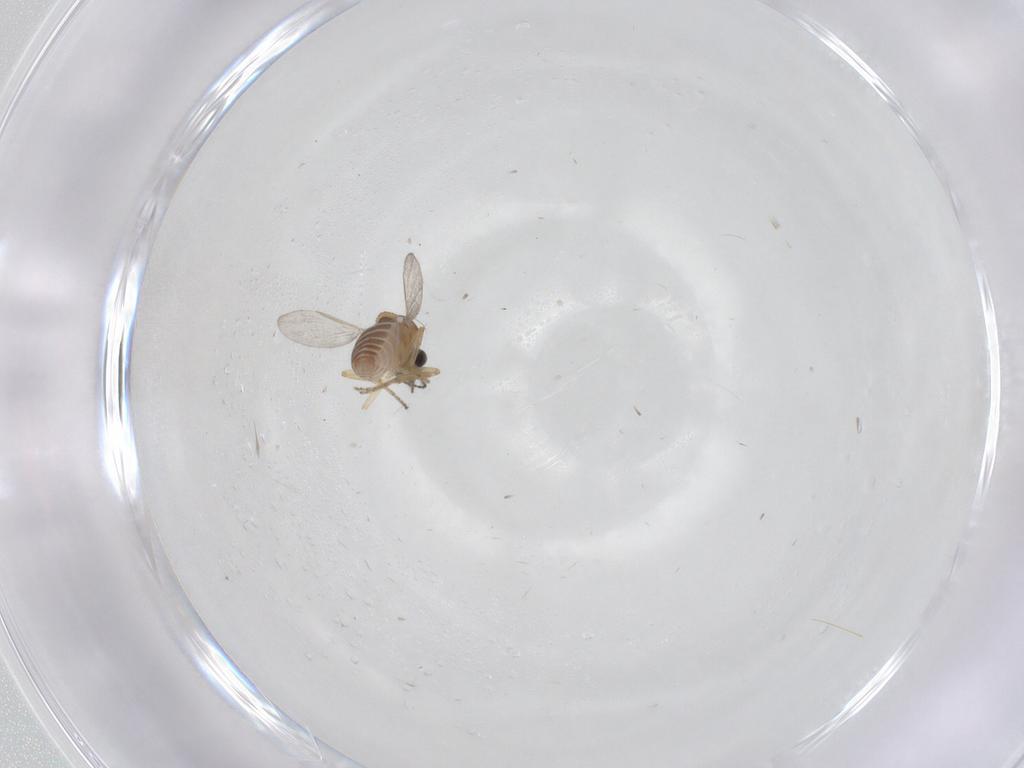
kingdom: Animalia
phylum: Arthropoda
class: Insecta
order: Diptera
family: Ceratopogonidae
